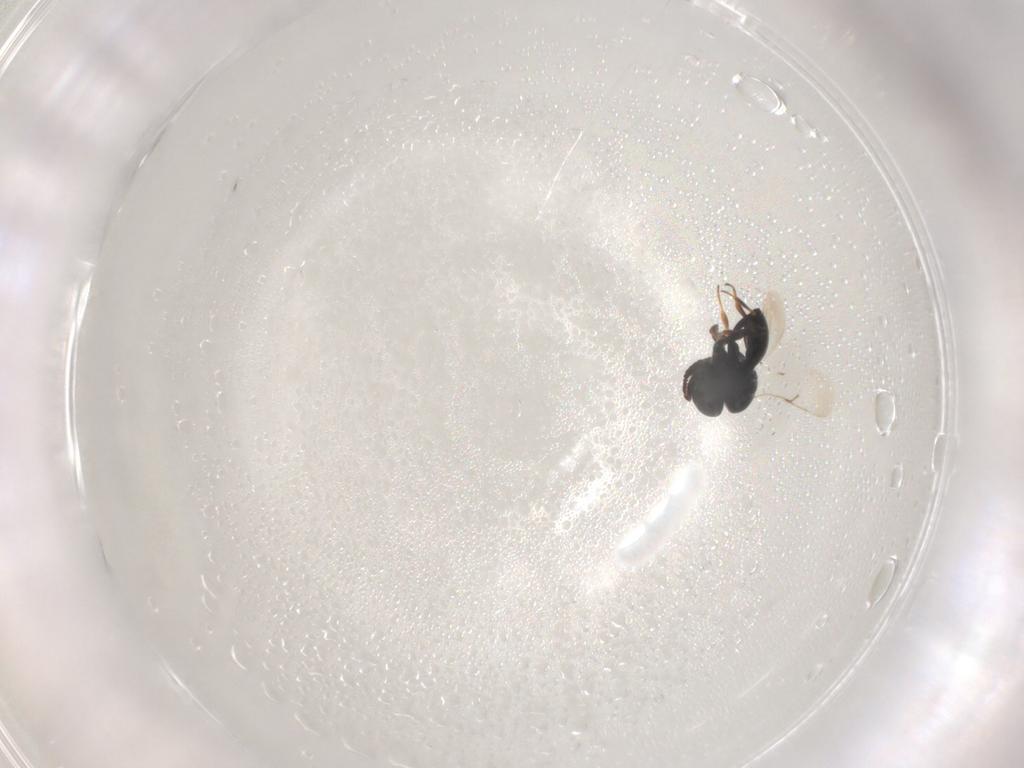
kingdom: Animalia
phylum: Arthropoda
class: Insecta
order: Hymenoptera
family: Scelionidae
